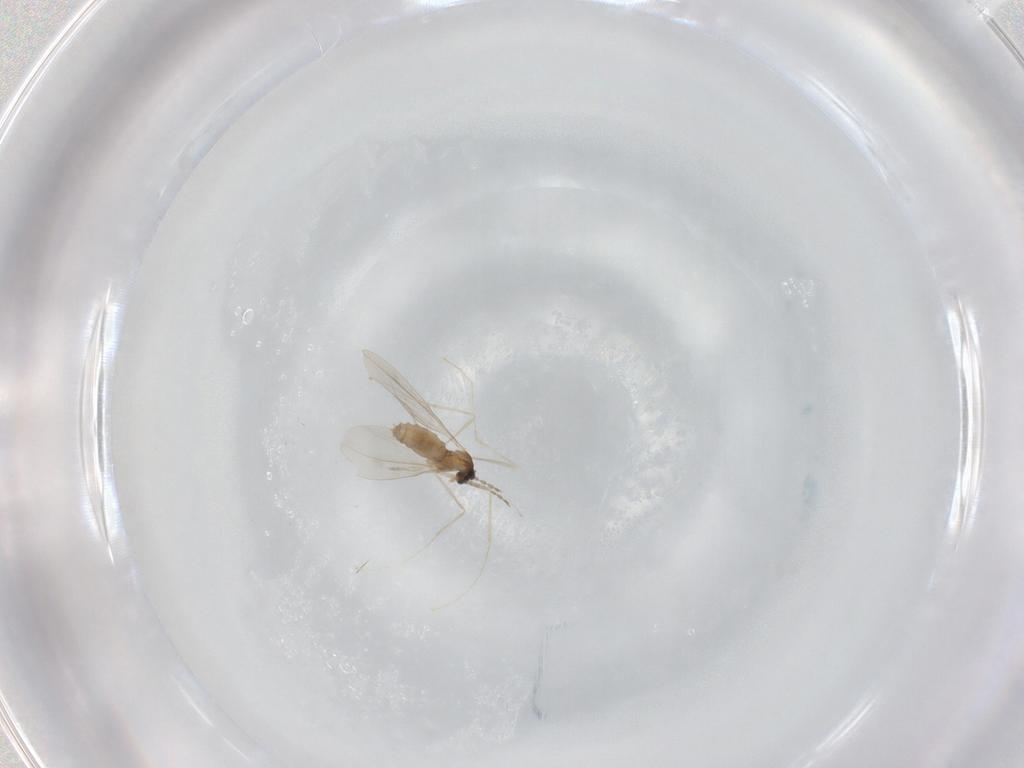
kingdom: Animalia
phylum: Arthropoda
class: Insecta
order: Diptera
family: Cecidomyiidae
